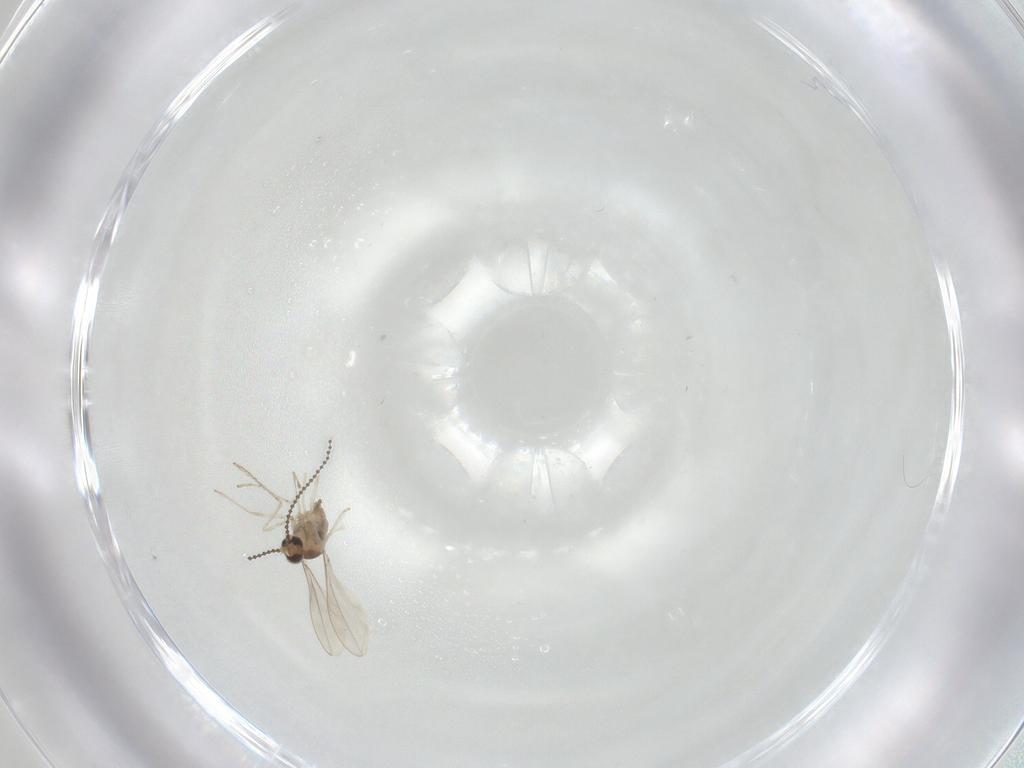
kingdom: Animalia
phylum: Arthropoda
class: Insecta
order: Diptera
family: Cecidomyiidae
